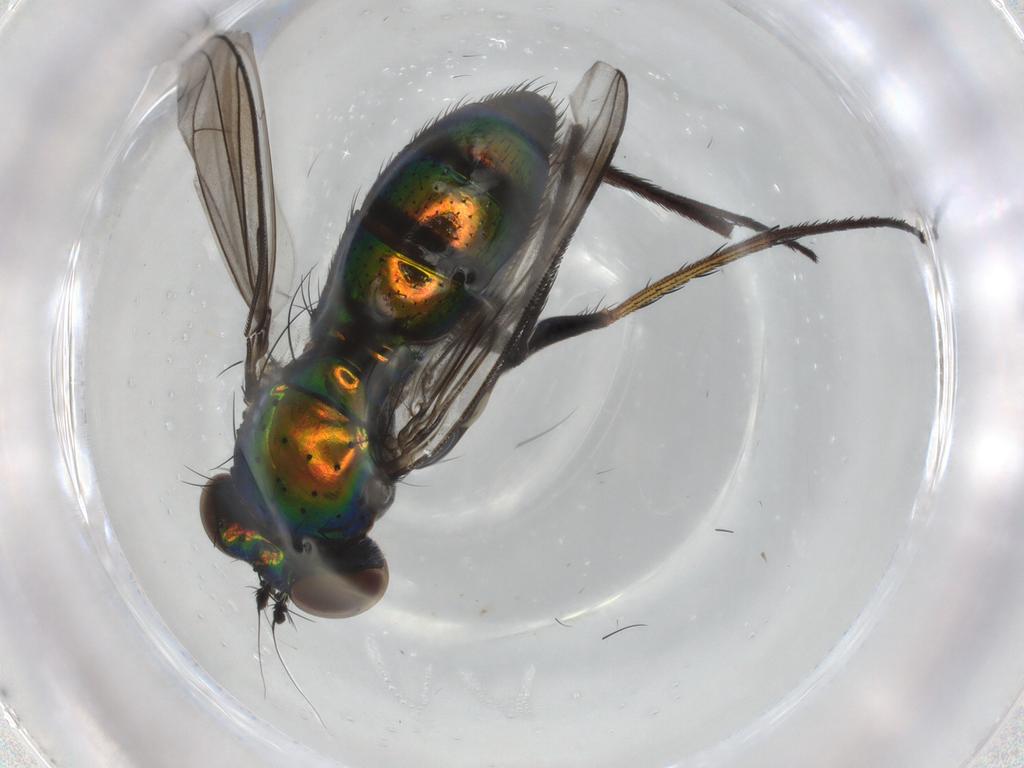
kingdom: Animalia
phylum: Arthropoda
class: Insecta
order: Diptera
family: Muscidae
